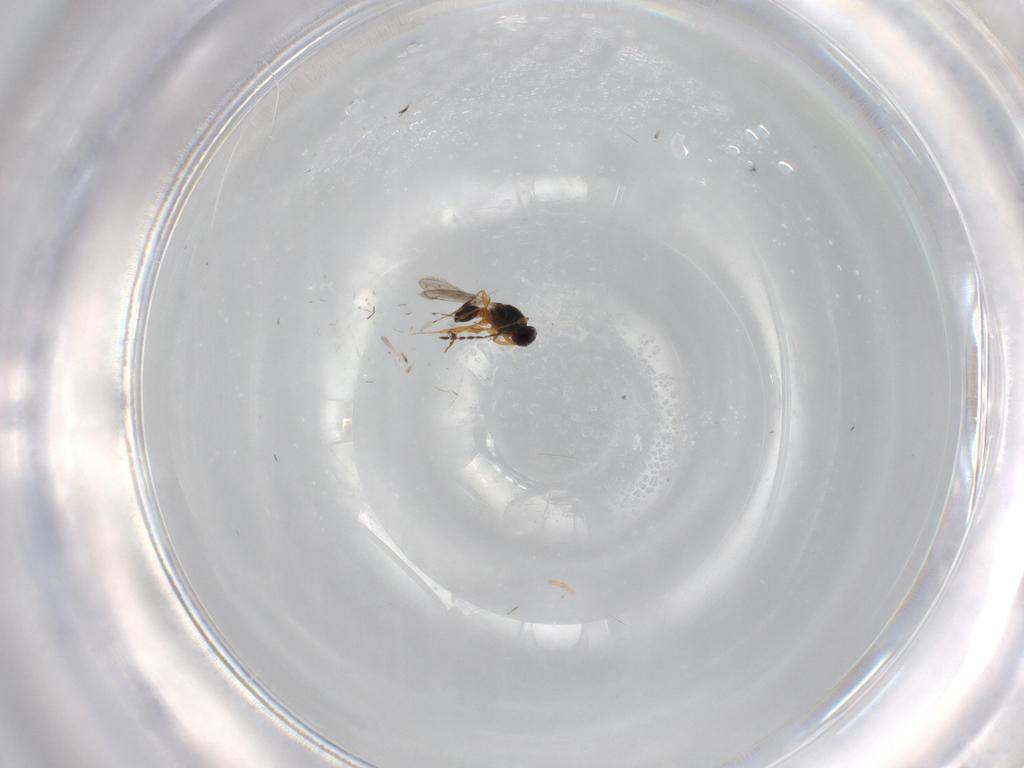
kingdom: Animalia
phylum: Arthropoda
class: Insecta
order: Hymenoptera
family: Platygastridae
